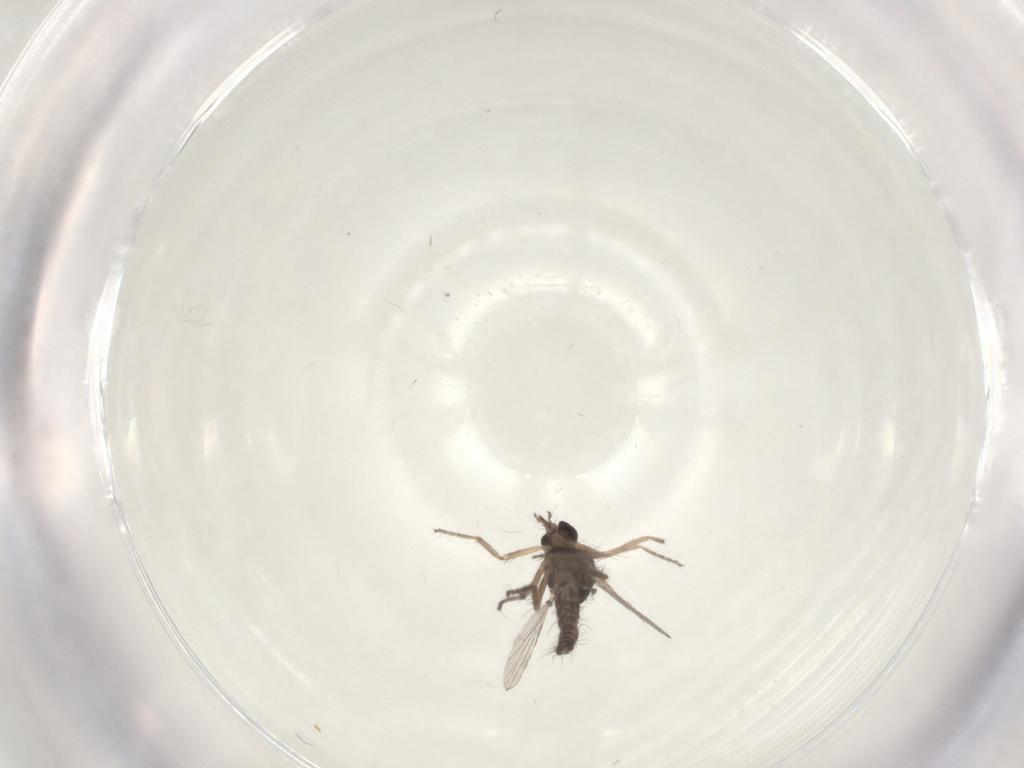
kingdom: Animalia
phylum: Arthropoda
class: Insecta
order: Diptera
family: Ceratopogonidae
